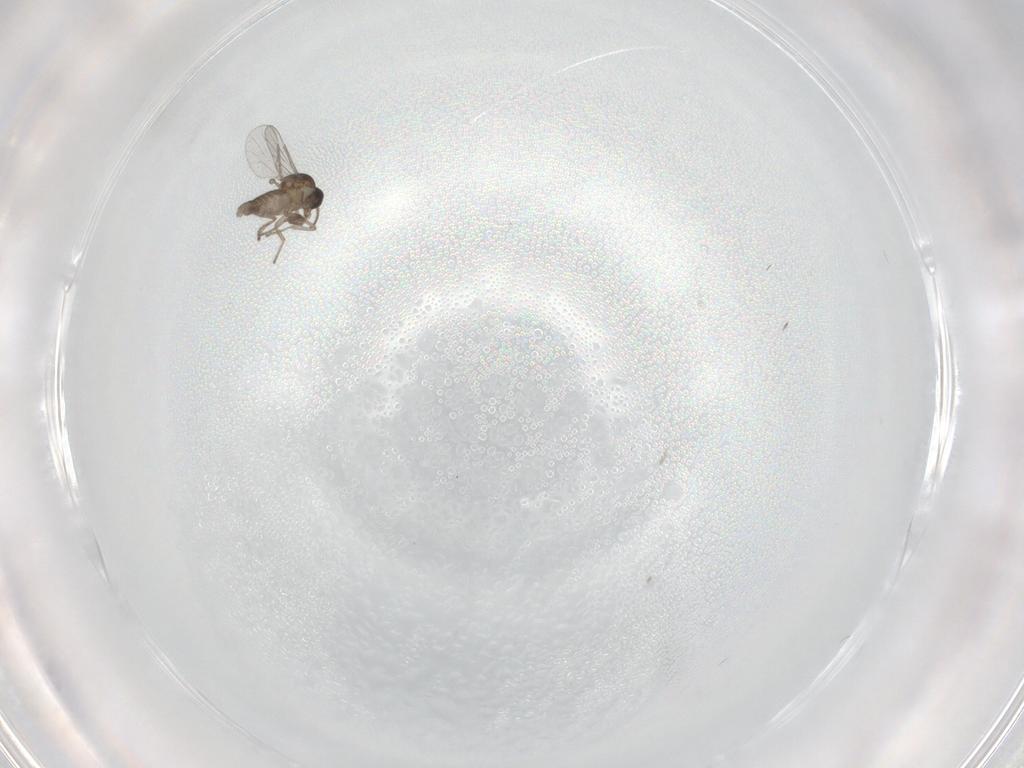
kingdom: Animalia
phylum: Arthropoda
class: Insecta
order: Diptera
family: Ceratopogonidae
